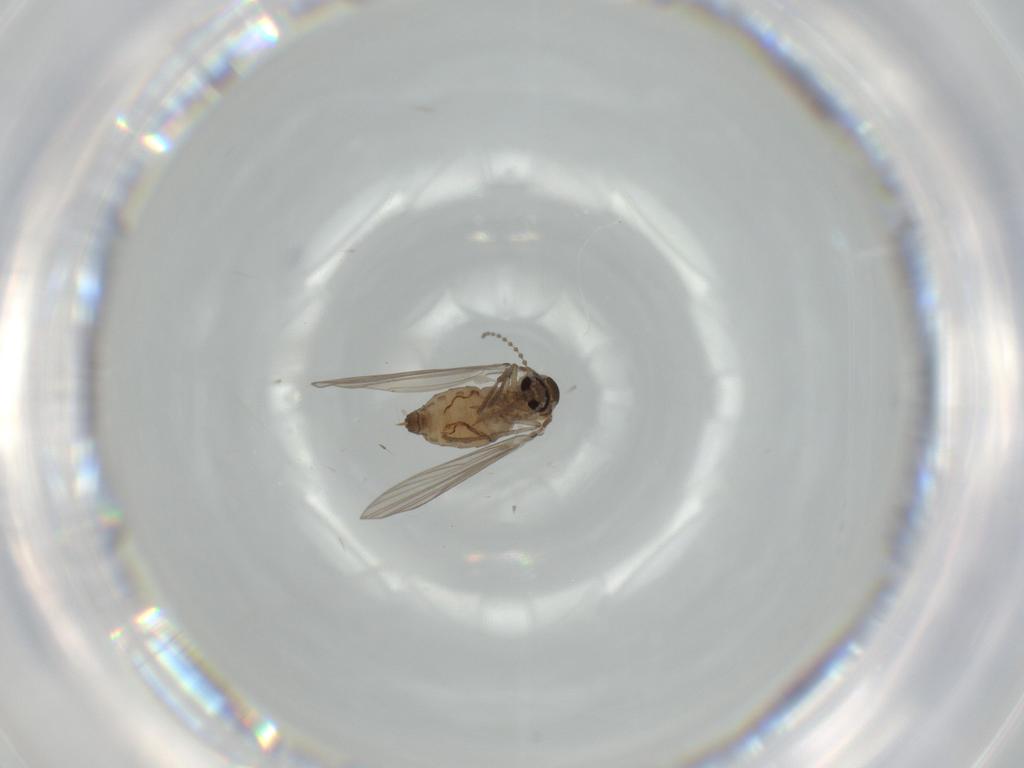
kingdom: Animalia
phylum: Arthropoda
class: Insecta
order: Diptera
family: Psychodidae
